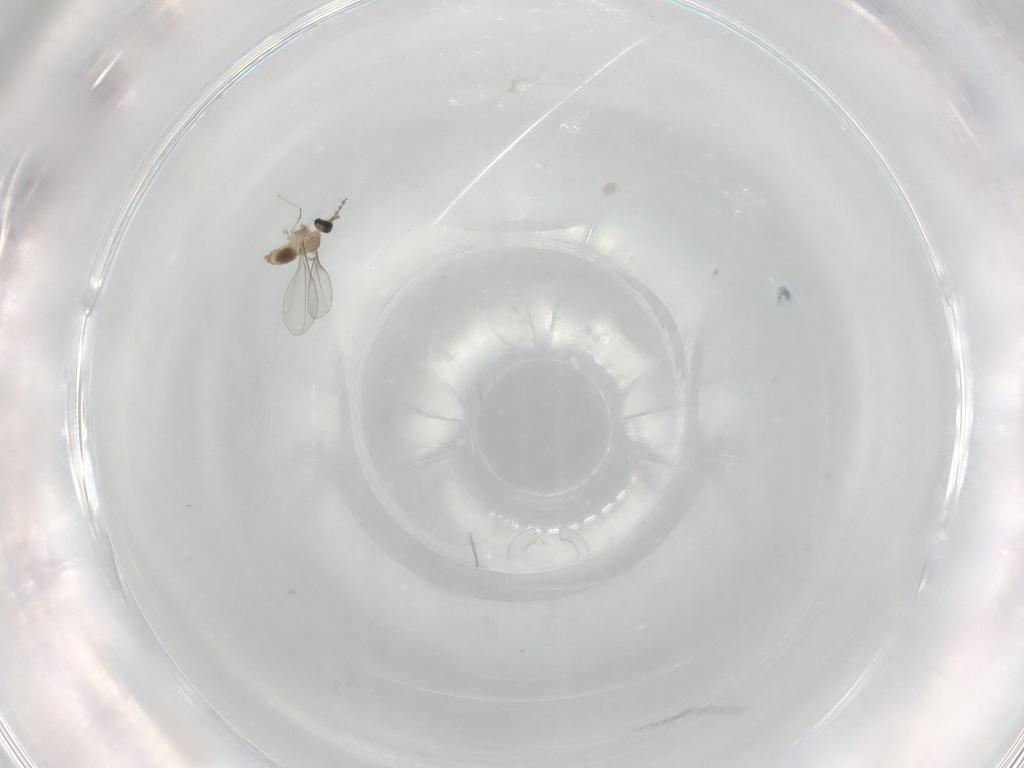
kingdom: Animalia
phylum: Arthropoda
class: Insecta
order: Diptera
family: Cecidomyiidae
